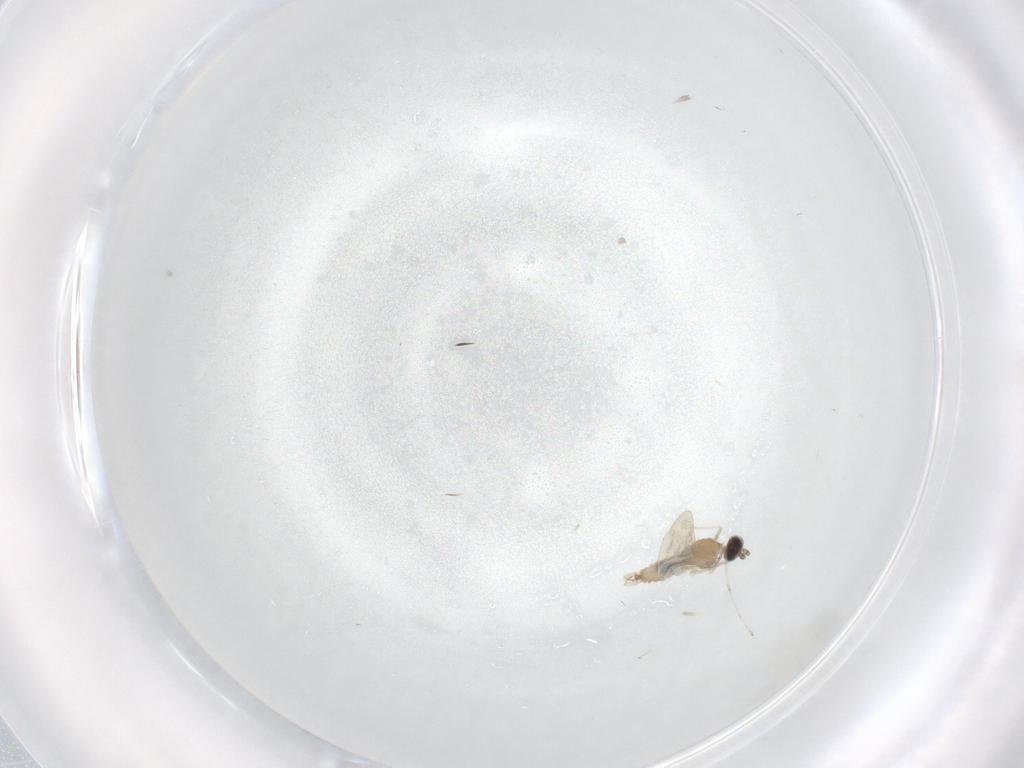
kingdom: Animalia
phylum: Arthropoda
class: Insecta
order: Diptera
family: Cecidomyiidae
